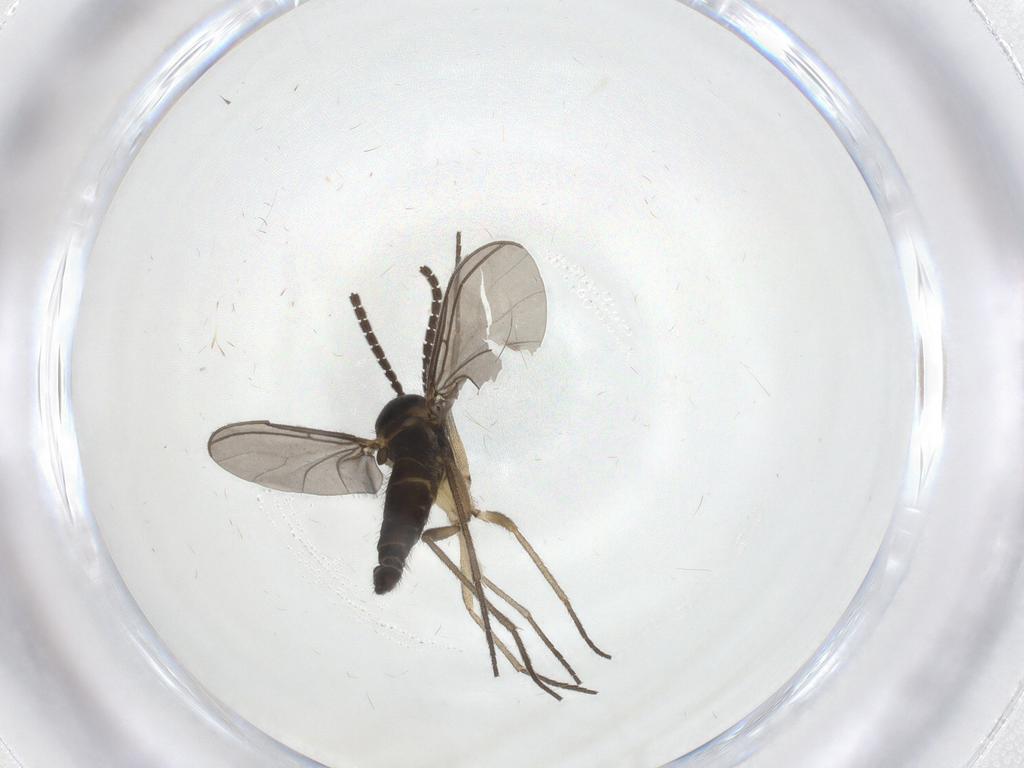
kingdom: Animalia
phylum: Arthropoda
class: Insecta
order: Diptera
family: Sciaridae
